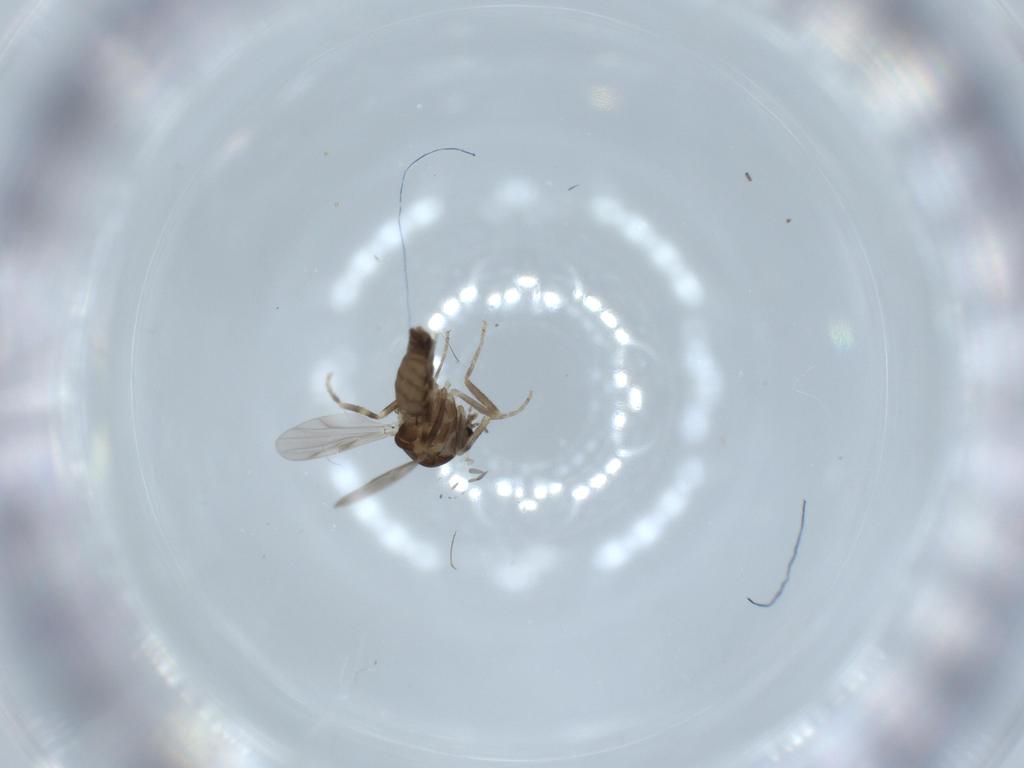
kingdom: Animalia
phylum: Arthropoda
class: Insecta
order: Diptera
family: Ceratopogonidae
